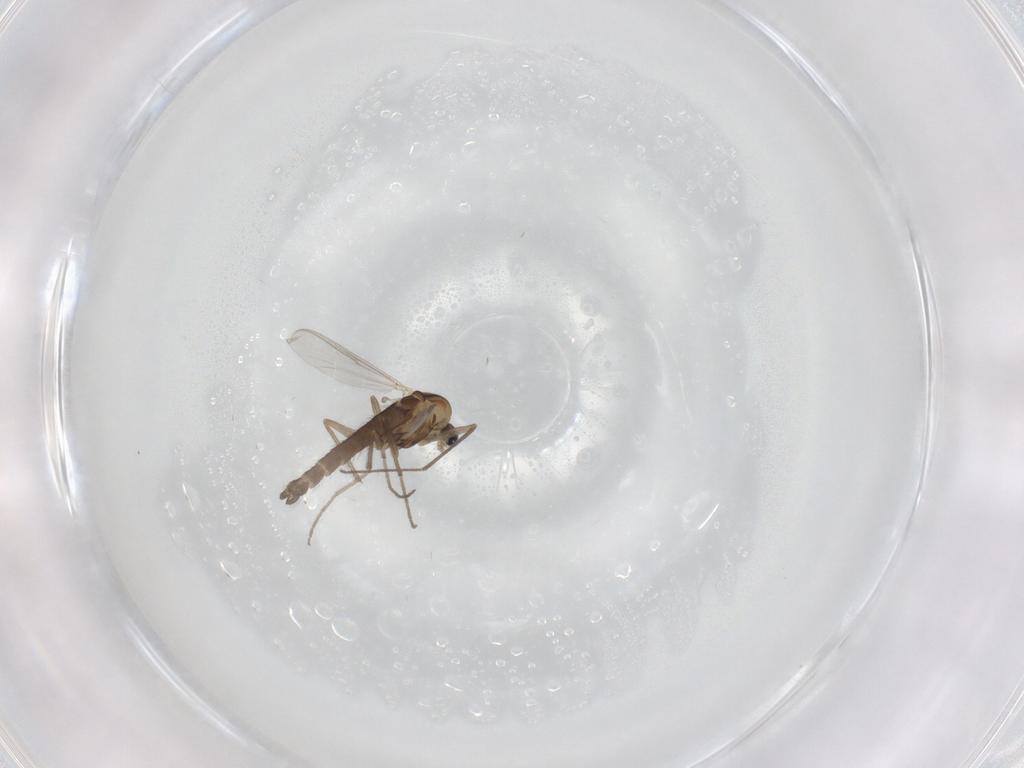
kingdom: Animalia
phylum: Arthropoda
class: Insecta
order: Diptera
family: Chironomidae
